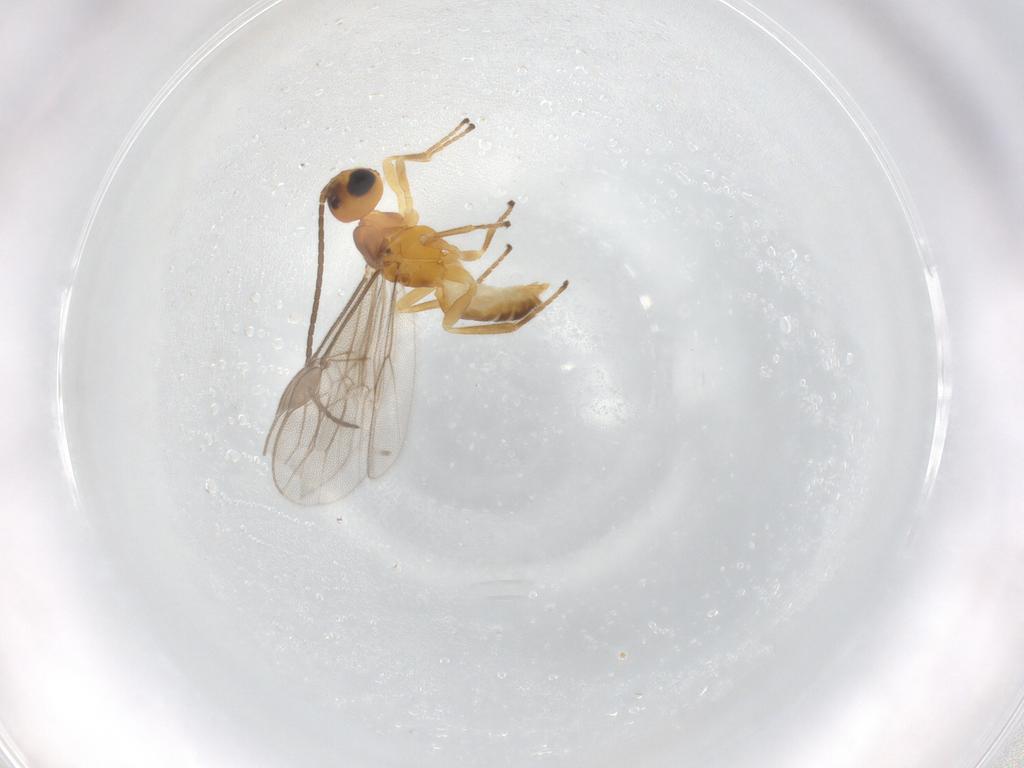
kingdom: Animalia
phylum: Arthropoda
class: Insecta
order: Hymenoptera
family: Braconidae
